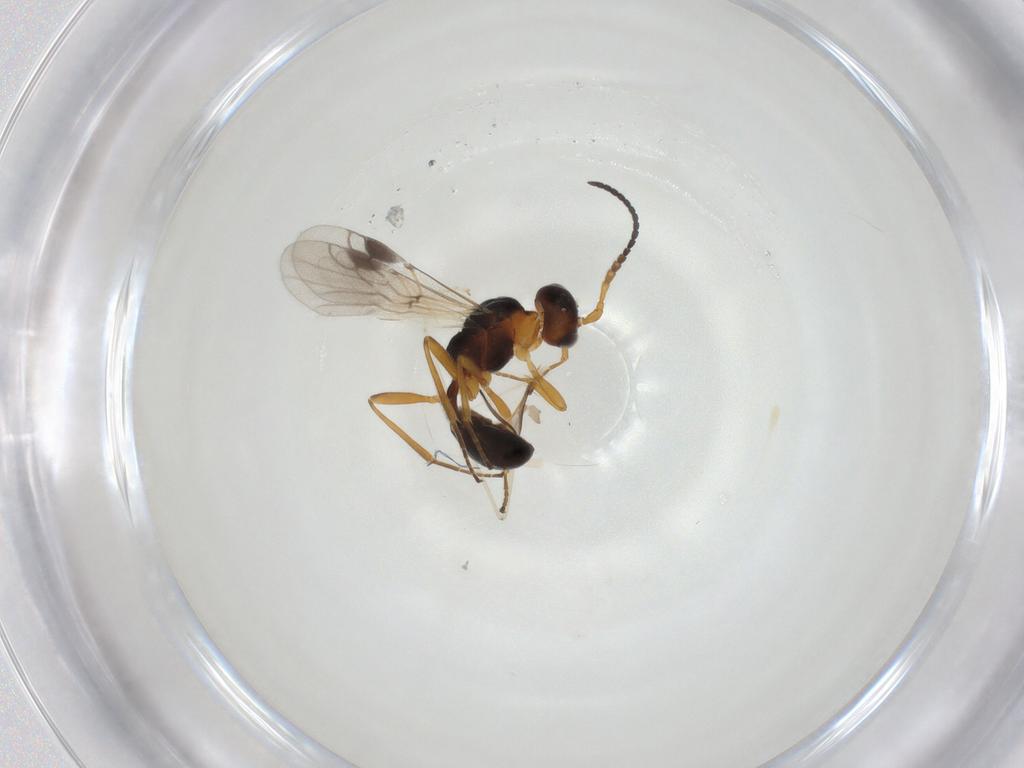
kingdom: Animalia
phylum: Arthropoda
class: Insecta
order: Hymenoptera
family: Braconidae
